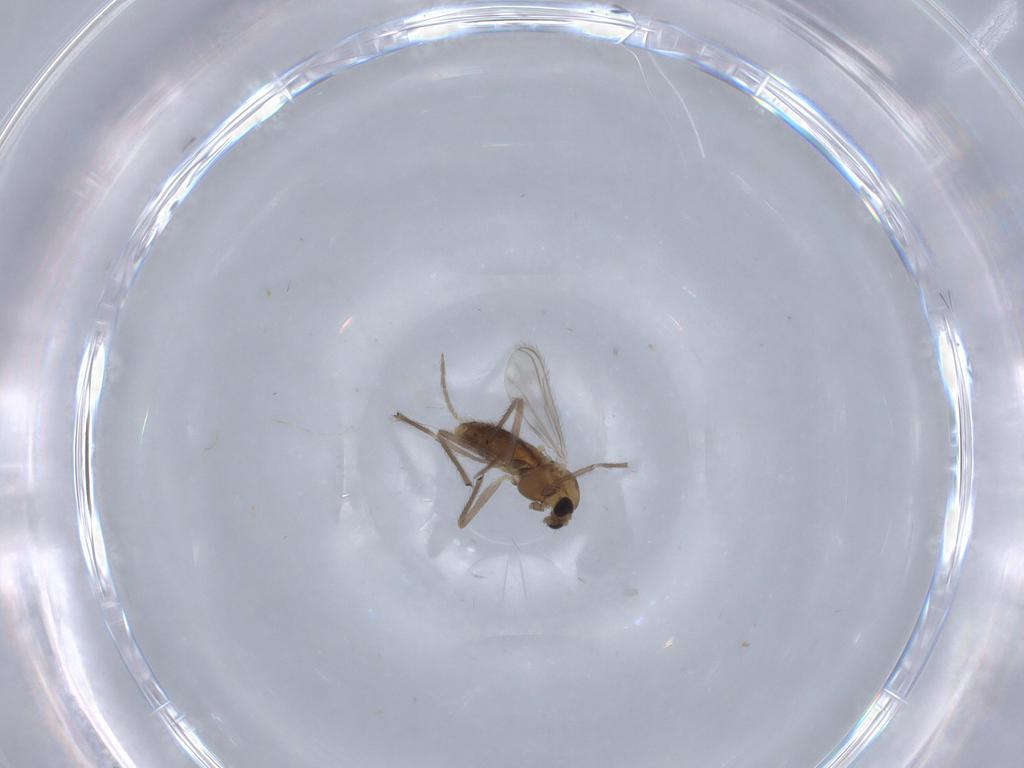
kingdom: Animalia
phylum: Arthropoda
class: Insecta
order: Diptera
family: Chironomidae
